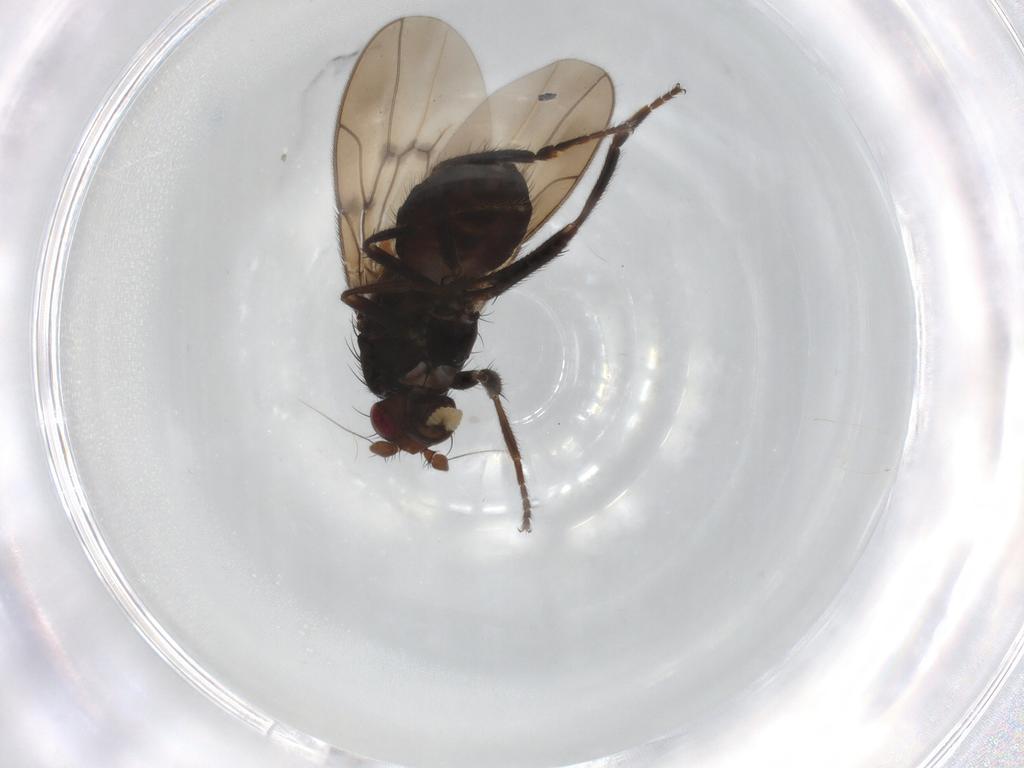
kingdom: Animalia
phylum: Arthropoda
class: Insecta
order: Diptera
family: Sphaeroceridae
